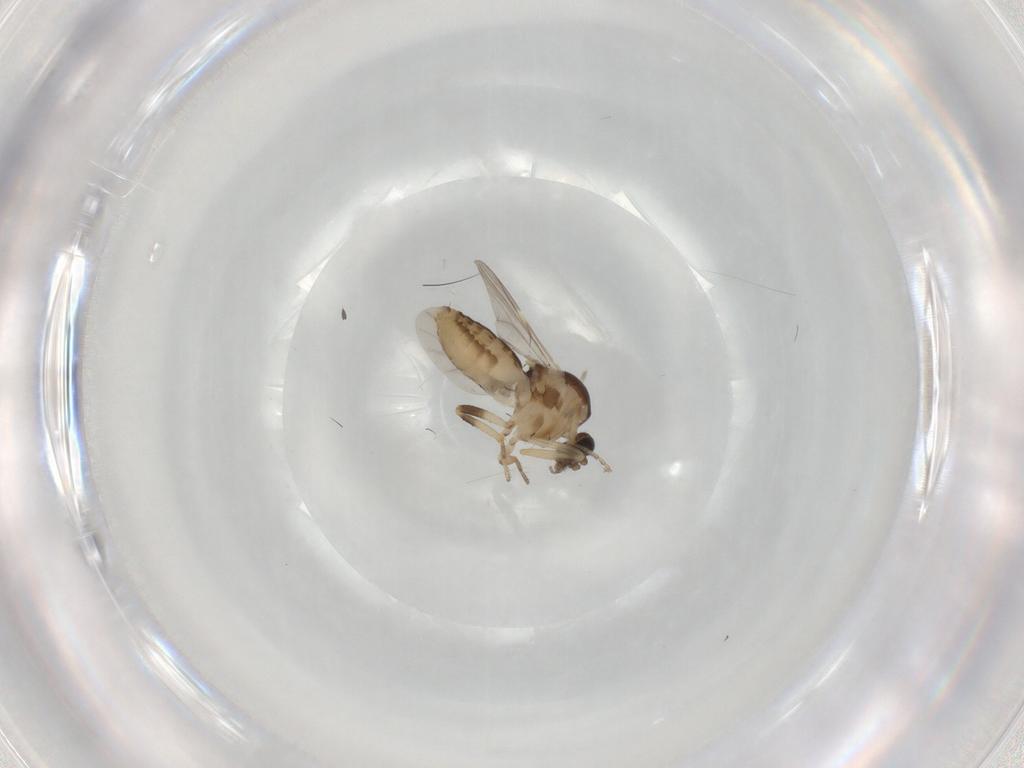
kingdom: Animalia
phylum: Arthropoda
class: Insecta
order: Diptera
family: Ceratopogonidae
